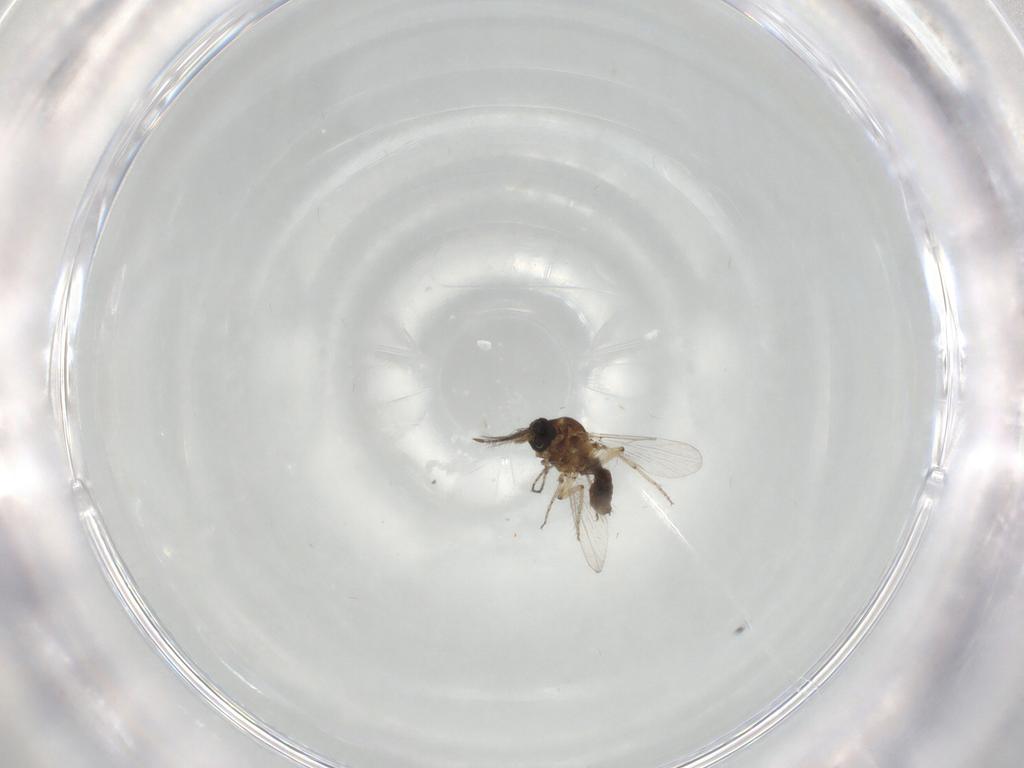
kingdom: Animalia
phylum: Arthropoda
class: Insecta
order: Diptera
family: Ceratopogonidae
